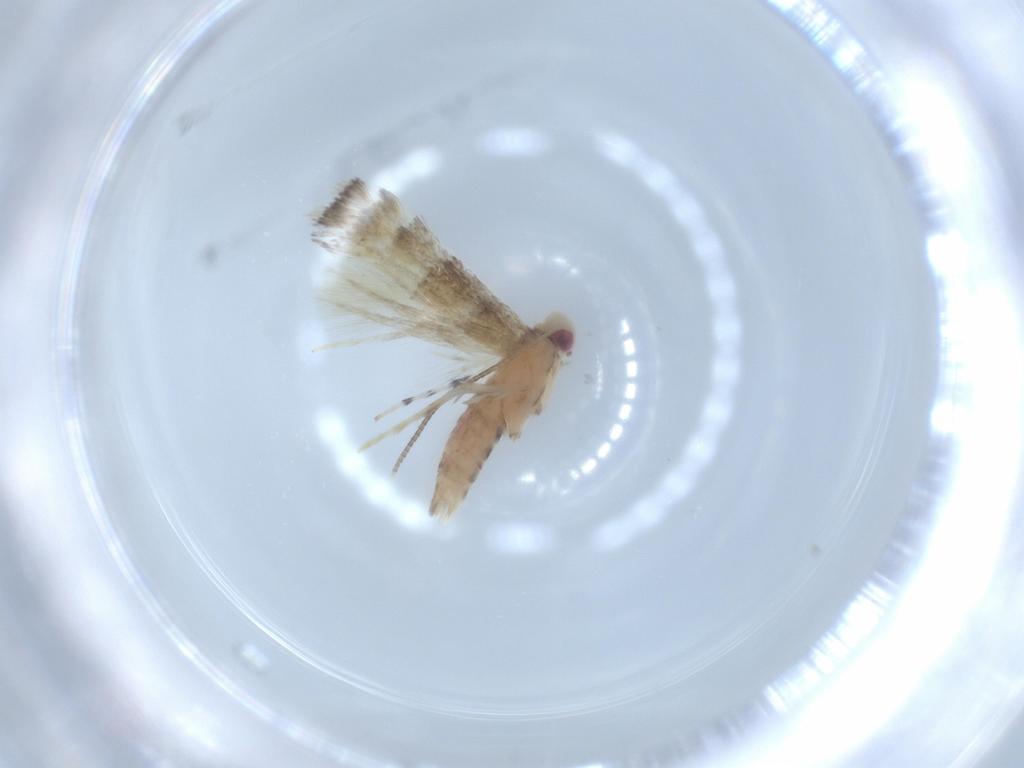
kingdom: Animalia
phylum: Arthropoda
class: Insecta
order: Lepidoptera
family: Gracillariidae
